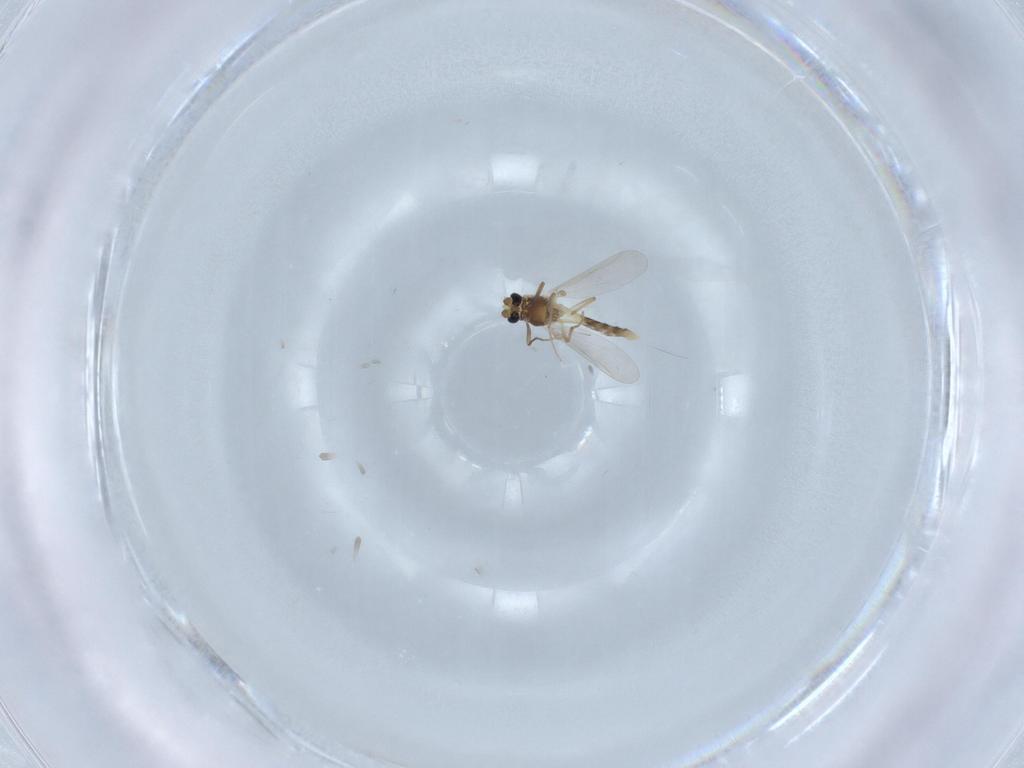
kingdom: Animalia
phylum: Arthropoda
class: Insecta
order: Diptera
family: Chironomidae
